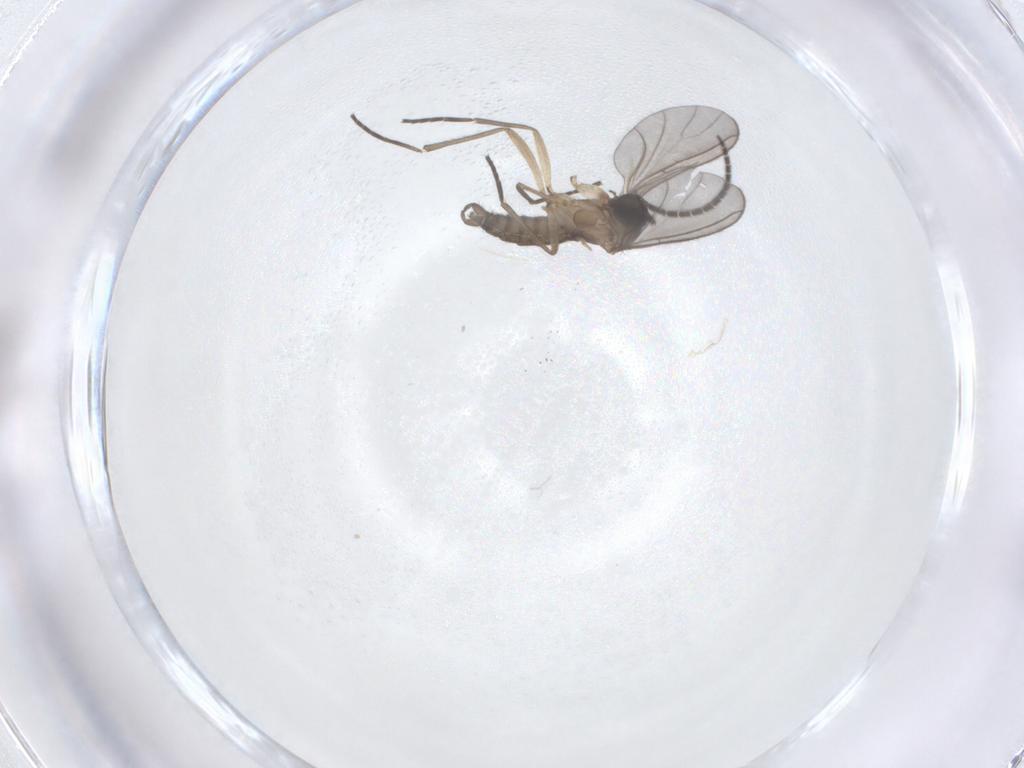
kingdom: Animalia
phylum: Arthropoda
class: Insecta
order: Diptera
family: Sciaridae
